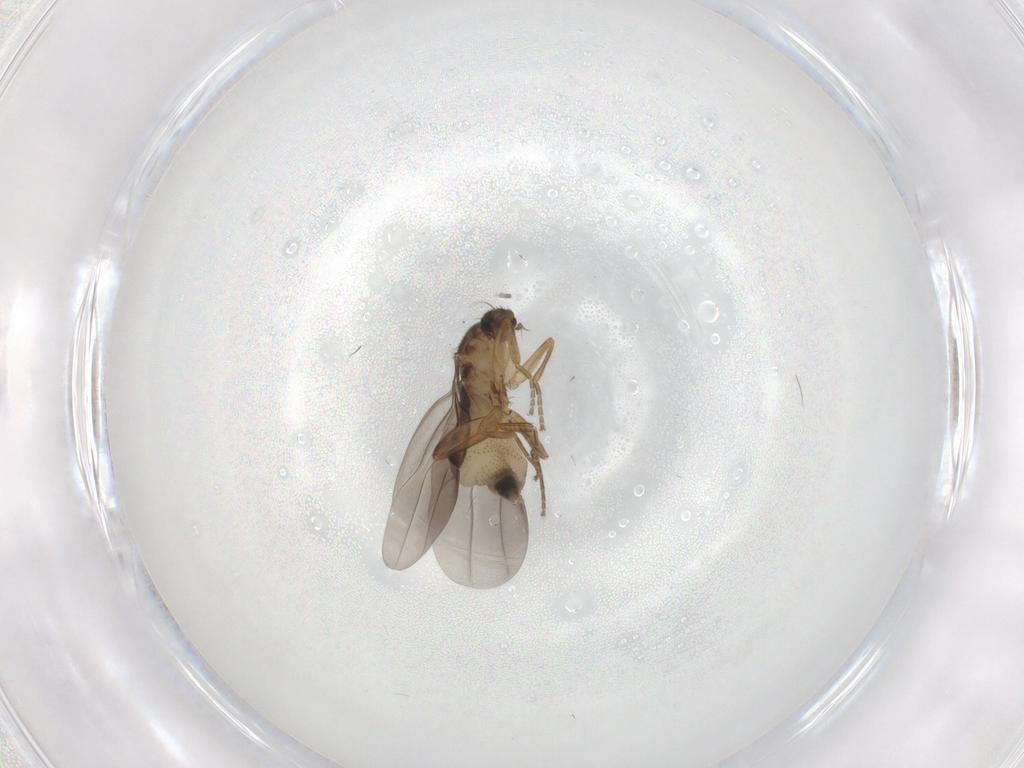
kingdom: Animalia
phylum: Arthropoda
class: Insecta
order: Diptera
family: Phoridae
